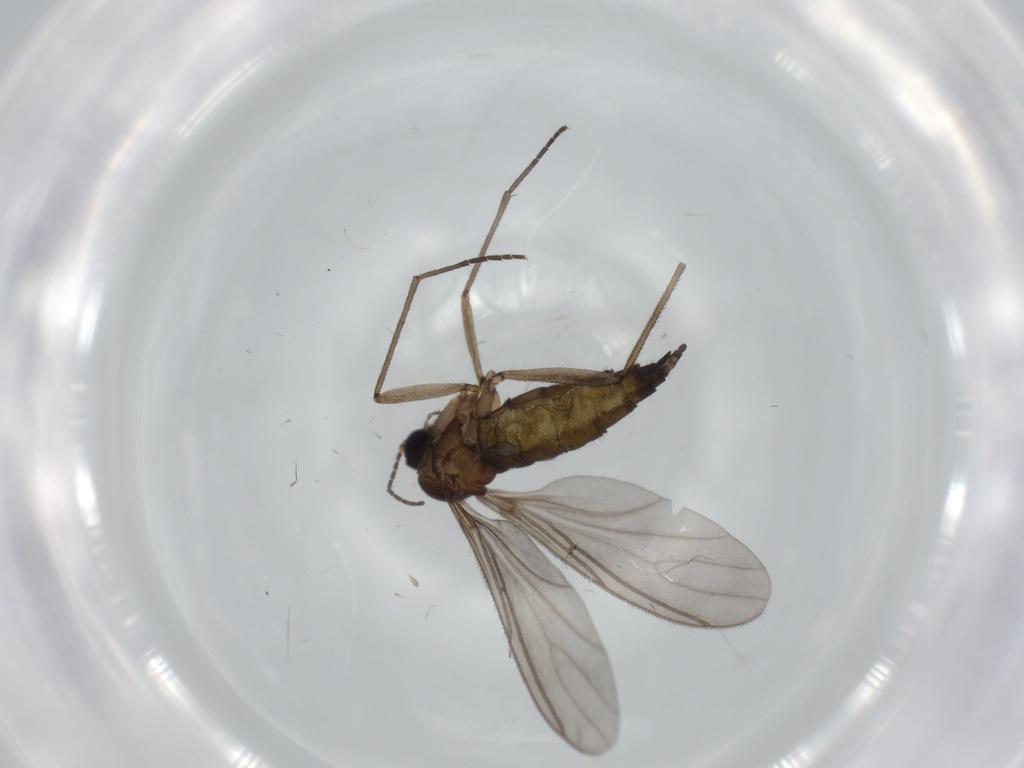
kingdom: Animalia
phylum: Arthropoda
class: Insecta
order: Diptera
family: Sciaridae
